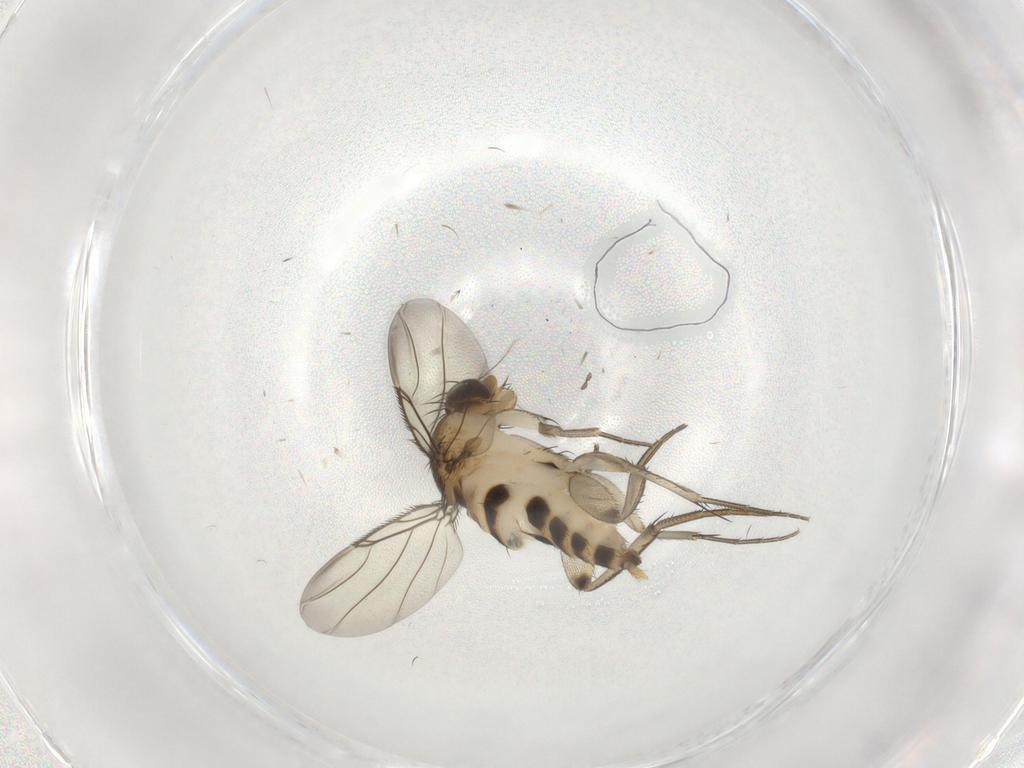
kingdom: Animalia
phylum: Arthropoda
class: Insecta
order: Diptera
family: Phoridae
